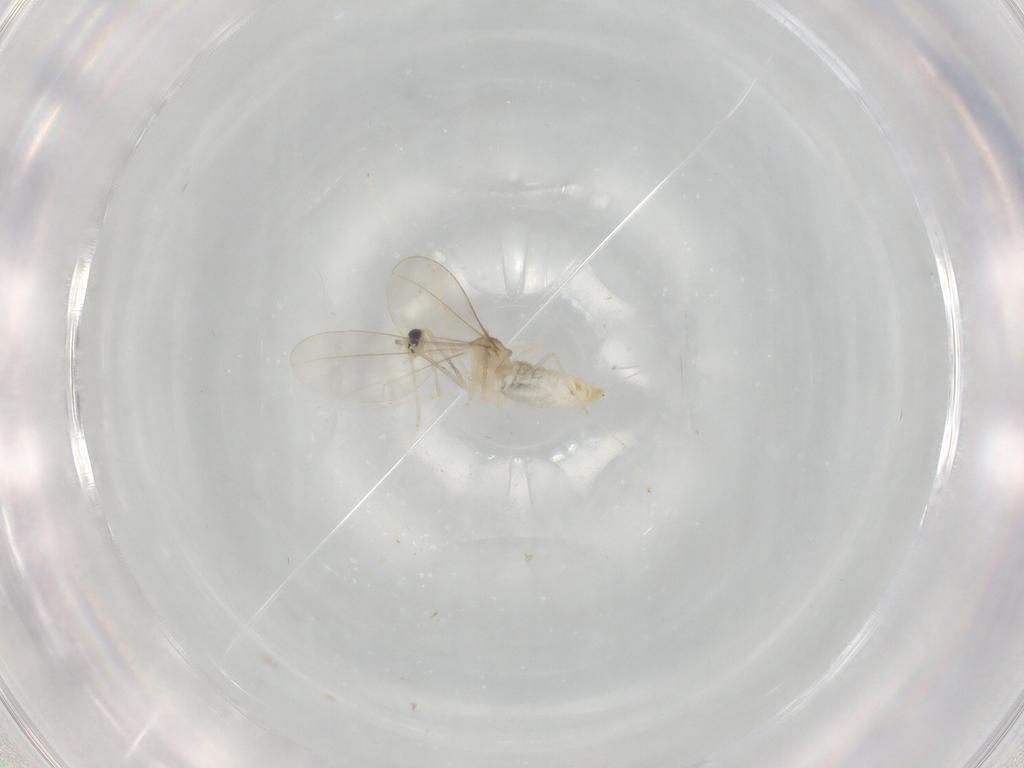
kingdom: Animalia
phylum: Arthropoda
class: Insecta
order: Diptera
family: Cecidomyiidae
